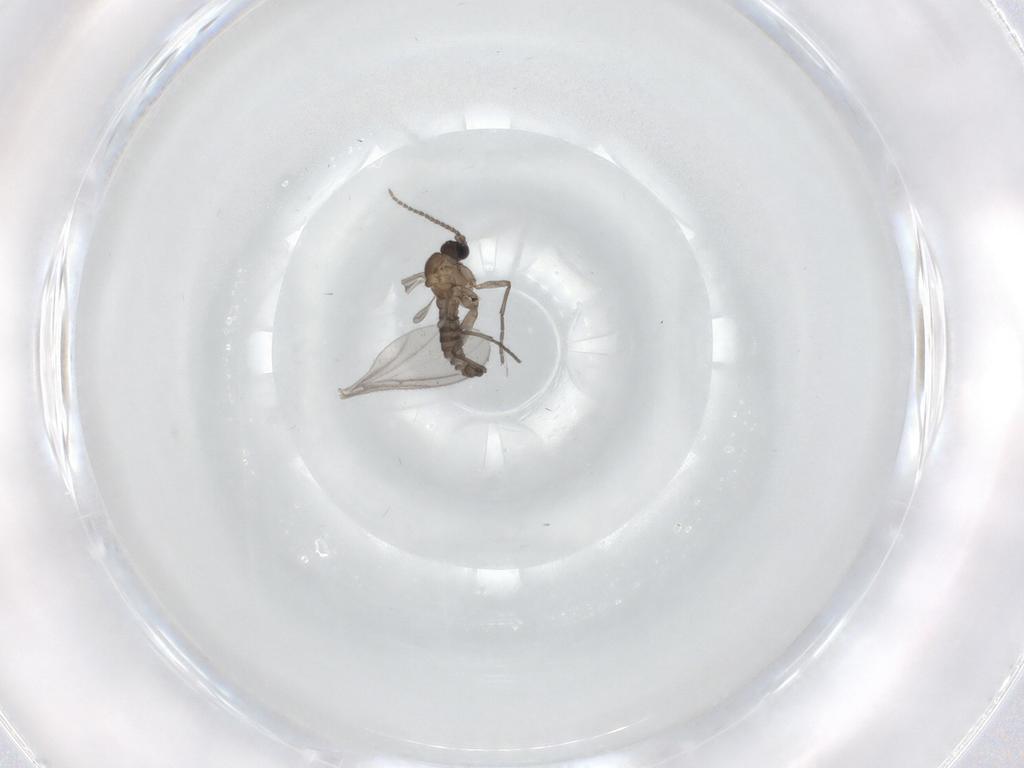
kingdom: Animalia
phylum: Arthropoda
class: Insecta
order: Diptera
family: Sciaridae
